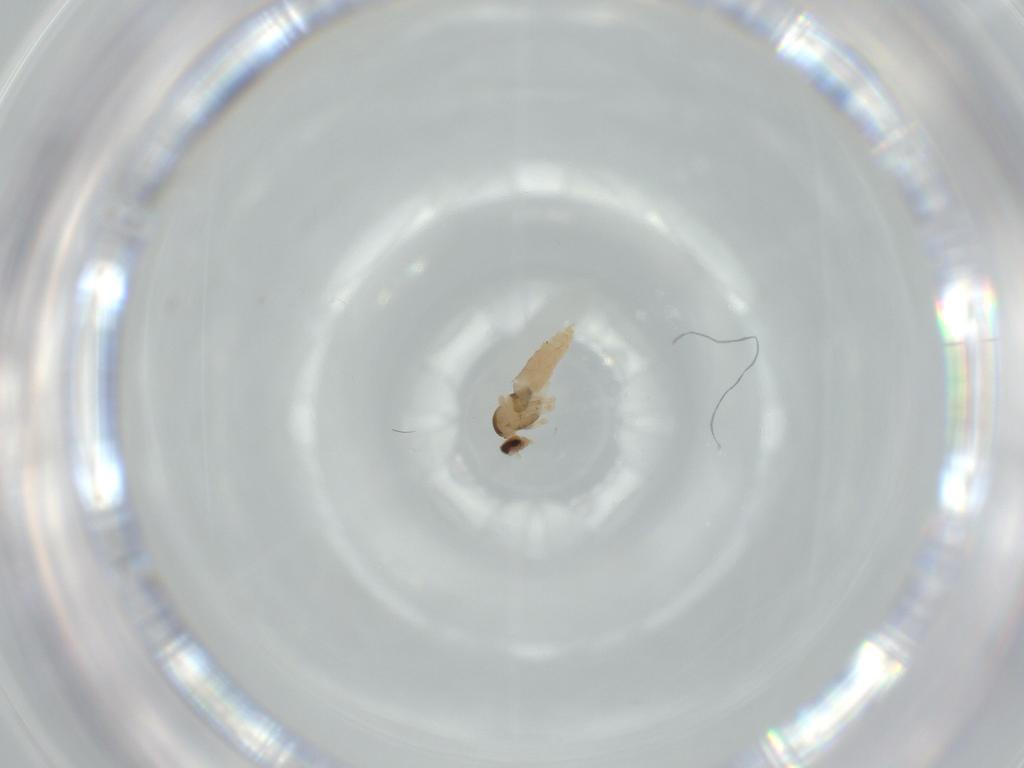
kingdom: Animalia
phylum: Arthropoda
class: Insecta
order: Diptera
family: Cecidomyiidae
